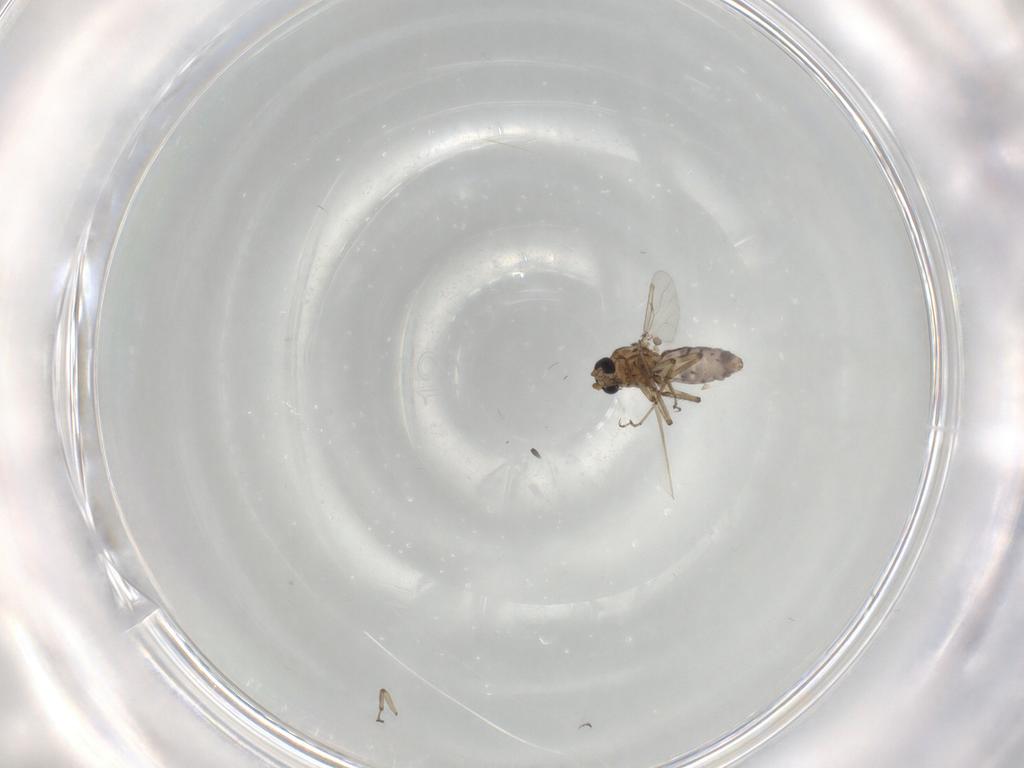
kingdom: Animalia
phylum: Arthropoda
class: Insecta
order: Diptera
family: Ceratopogonidae
